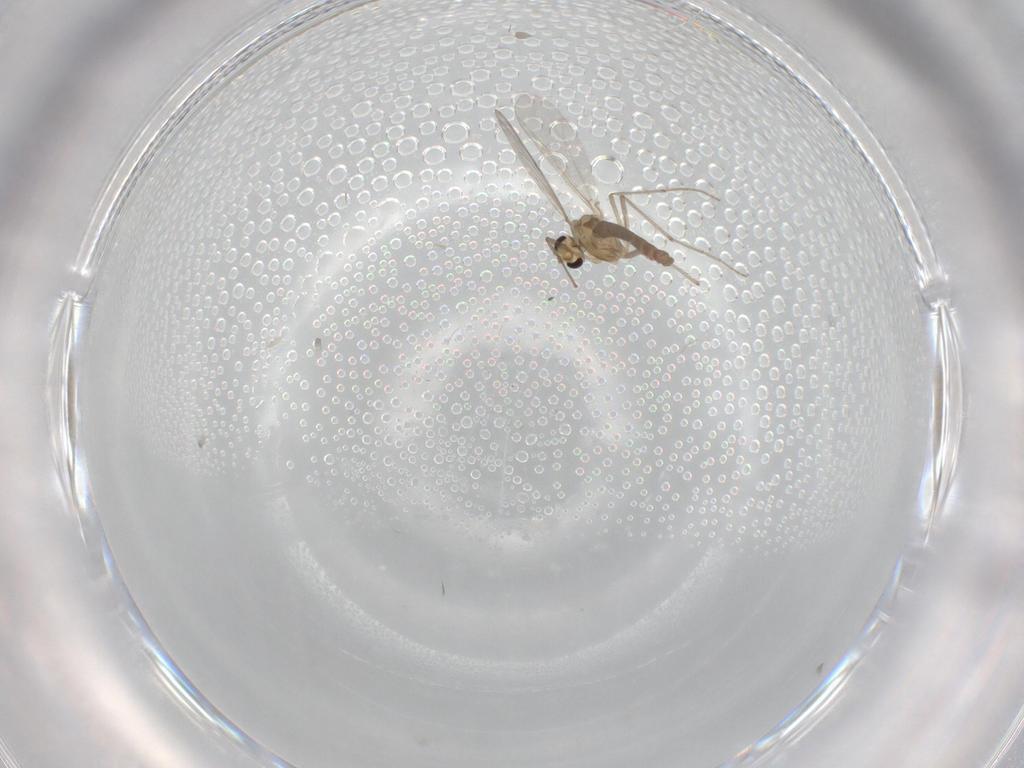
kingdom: Animalia
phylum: Arthropoda
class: Insecta
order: Diptera
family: Chironomidae
